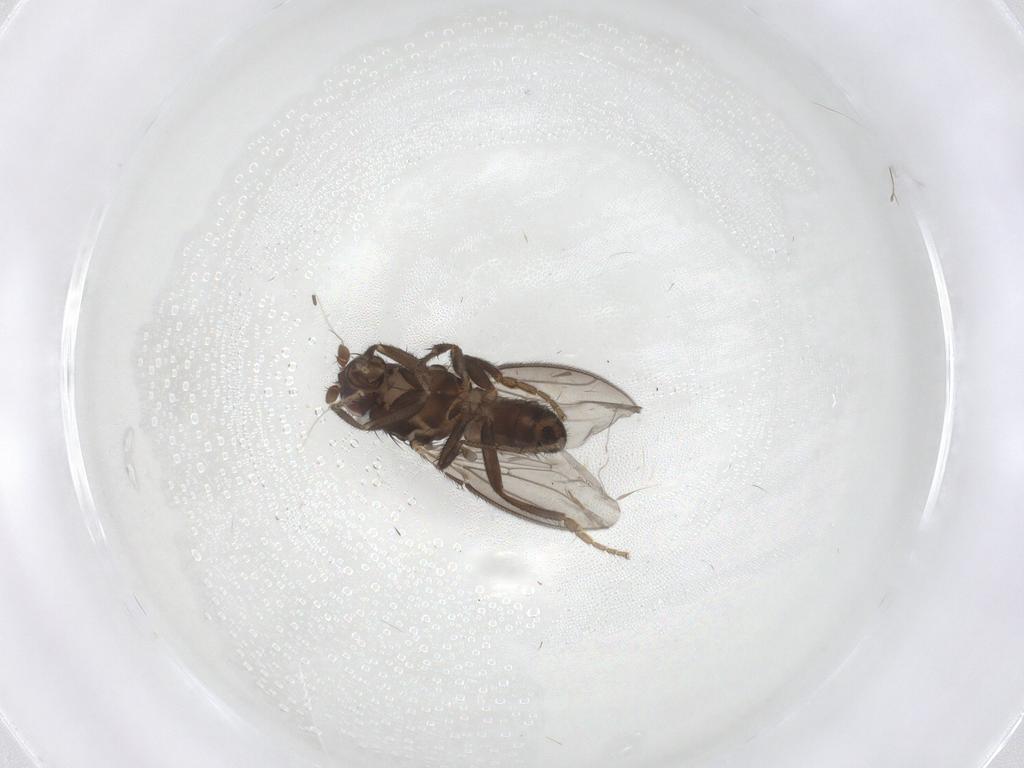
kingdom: Animalia
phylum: Arthropoda
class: Insecta
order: Diptera
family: Sphaeroceridae
